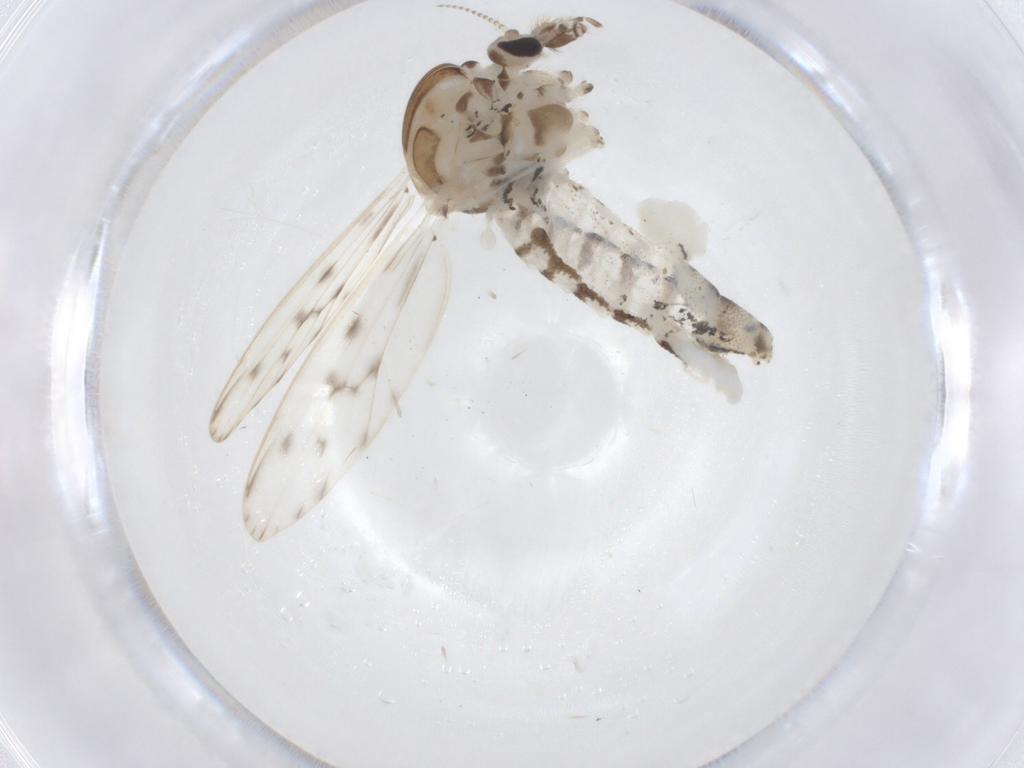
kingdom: Animalia
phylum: Arthropoda
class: Insecta
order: Diptera
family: Chaoboridae
